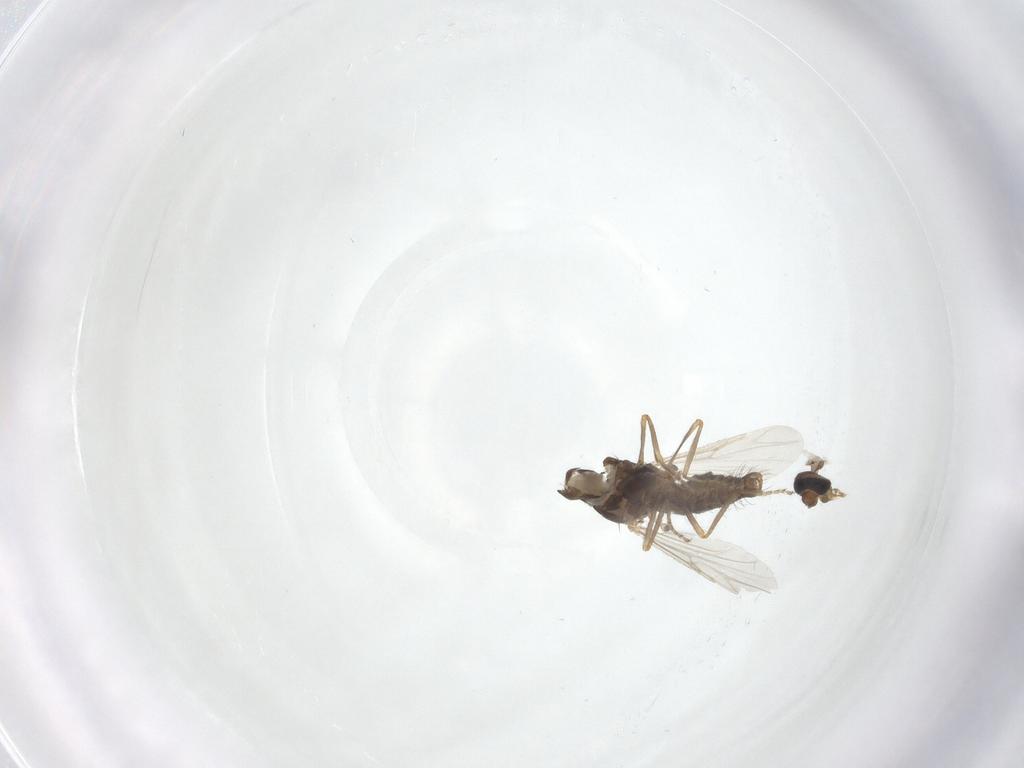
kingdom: Animalia
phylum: Arthropoda
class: Insecta
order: Diptera
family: Ceratopogonidae
